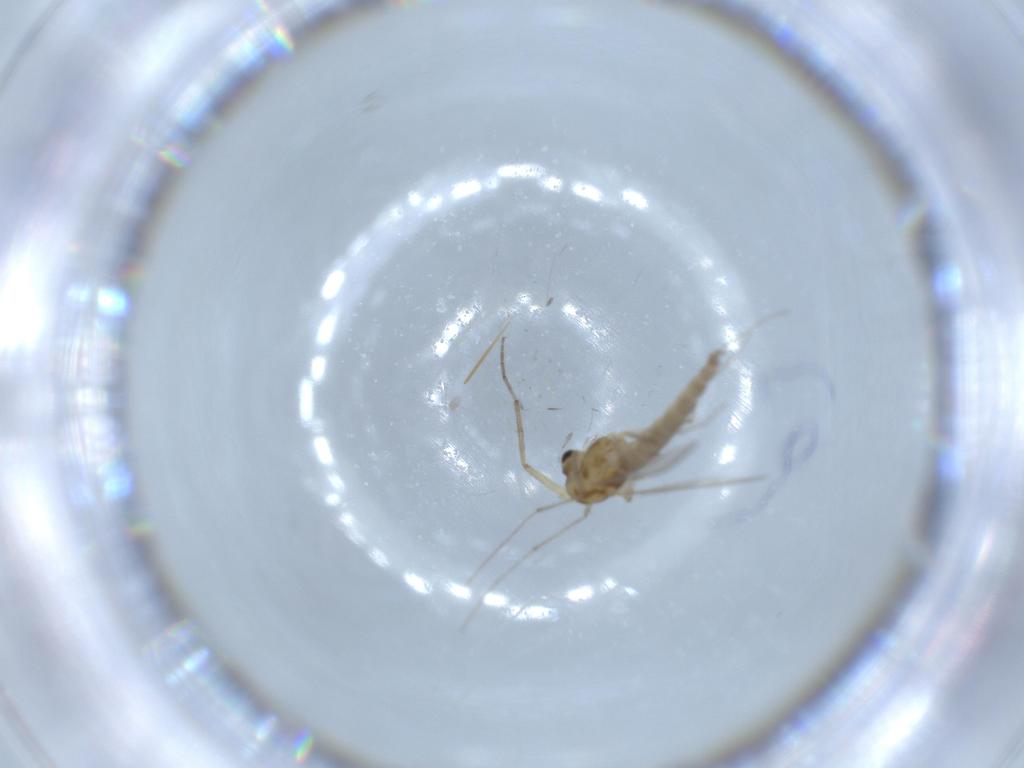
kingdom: Animalia
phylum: Arthropoda
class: Insecta
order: Diptera
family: Chironomidae
